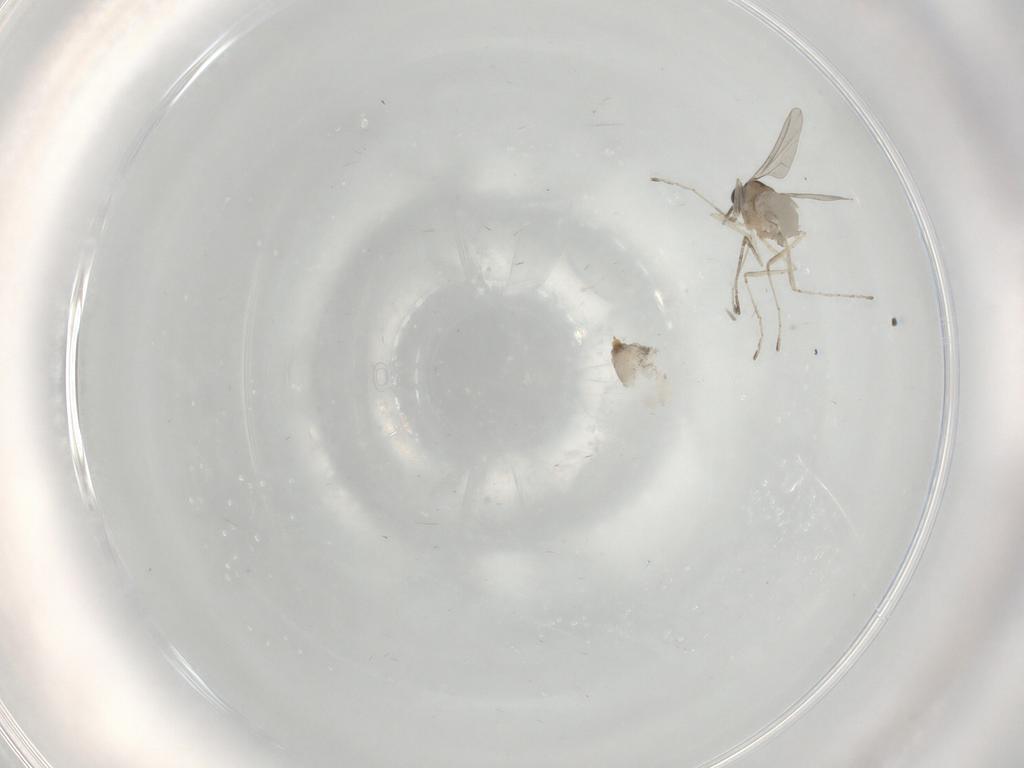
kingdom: Animalia
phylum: Arthropoda
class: Insecta
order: Diptera
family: Cecidomyiidae
